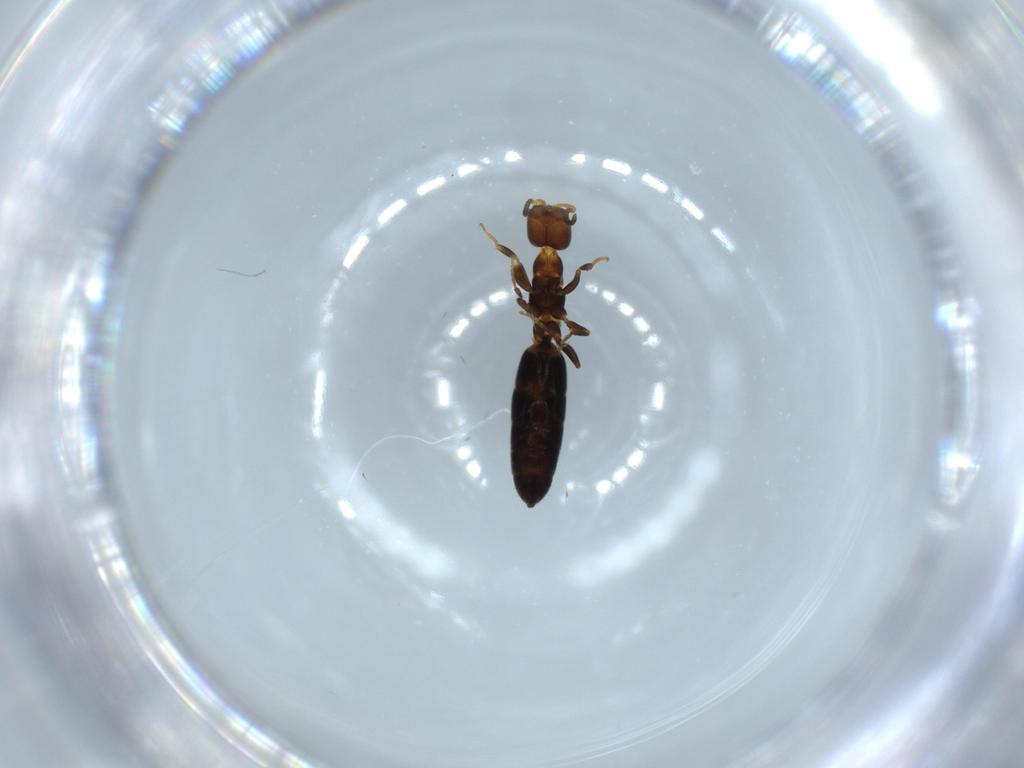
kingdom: Animalia
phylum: Arthropoda
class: Insecta
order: Hymenoptera
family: Bethylidae
